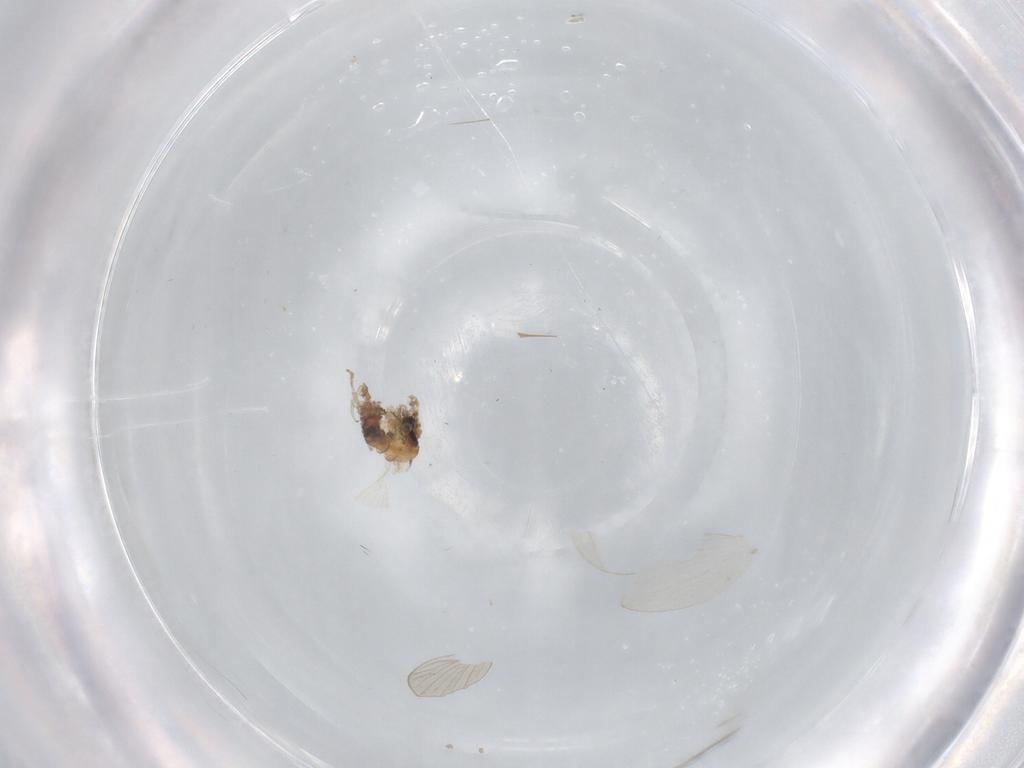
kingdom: Animalia
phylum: Arthropoda
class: Insecta
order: Diptera
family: Psychodidae
